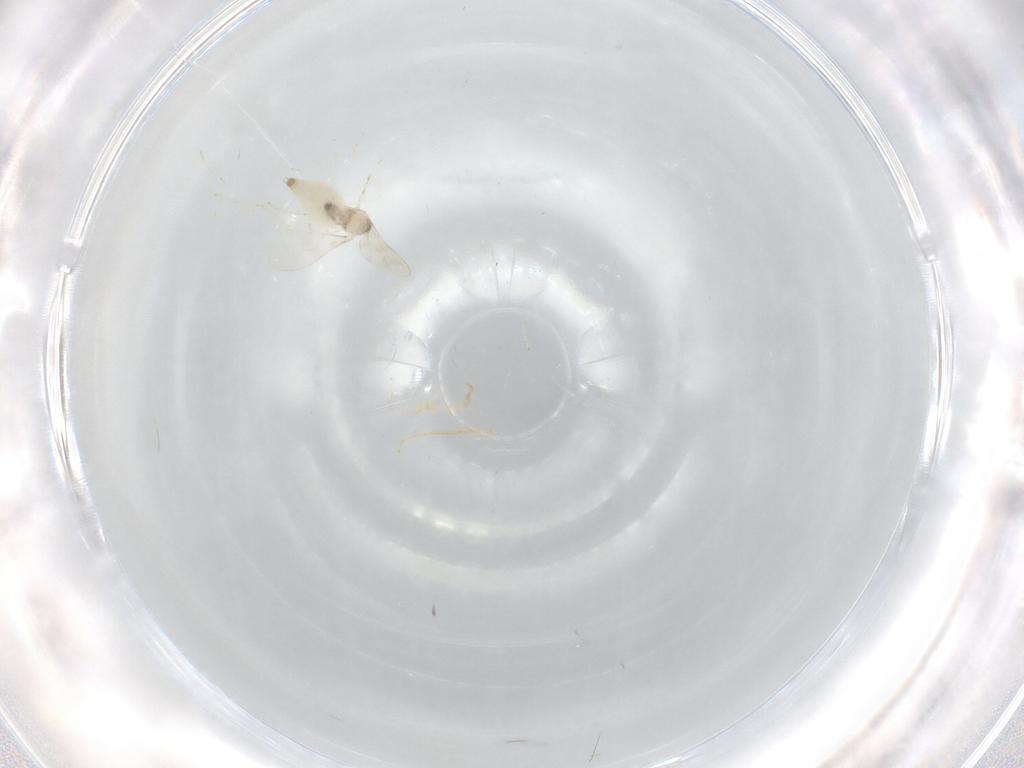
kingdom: Animalia
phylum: Arthropoda
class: Insecta
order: Diptera
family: Cecidomyiidae
